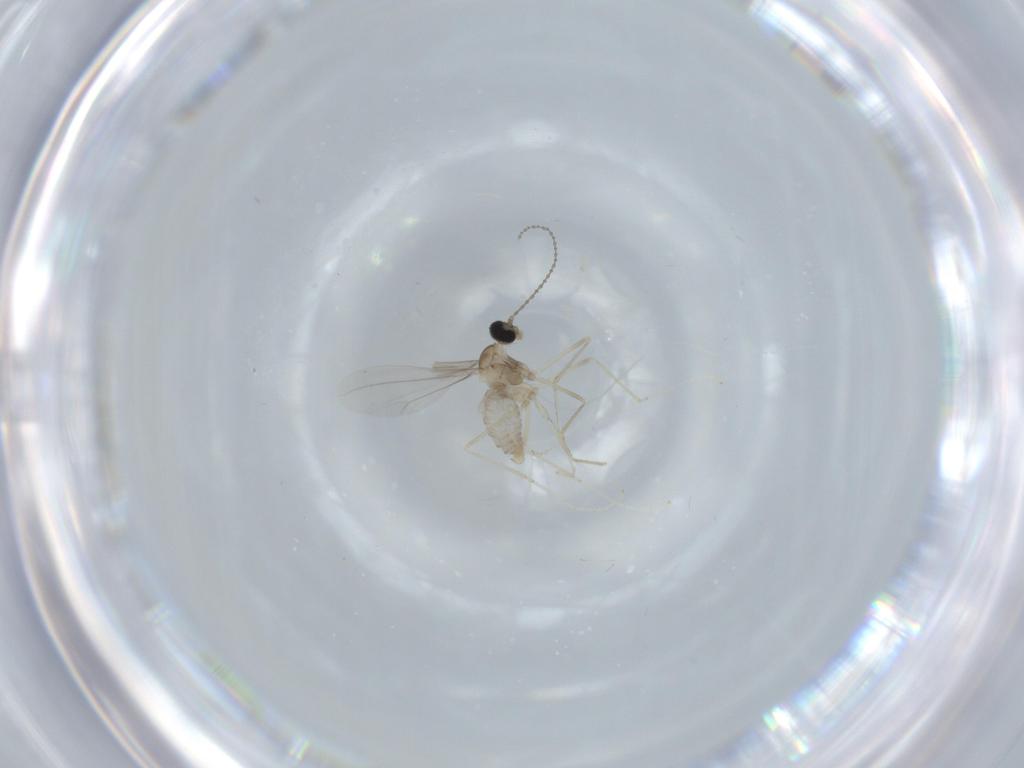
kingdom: Animalia
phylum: Arthropoda
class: Insecta
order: Diptera
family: Cecidomyiidae
